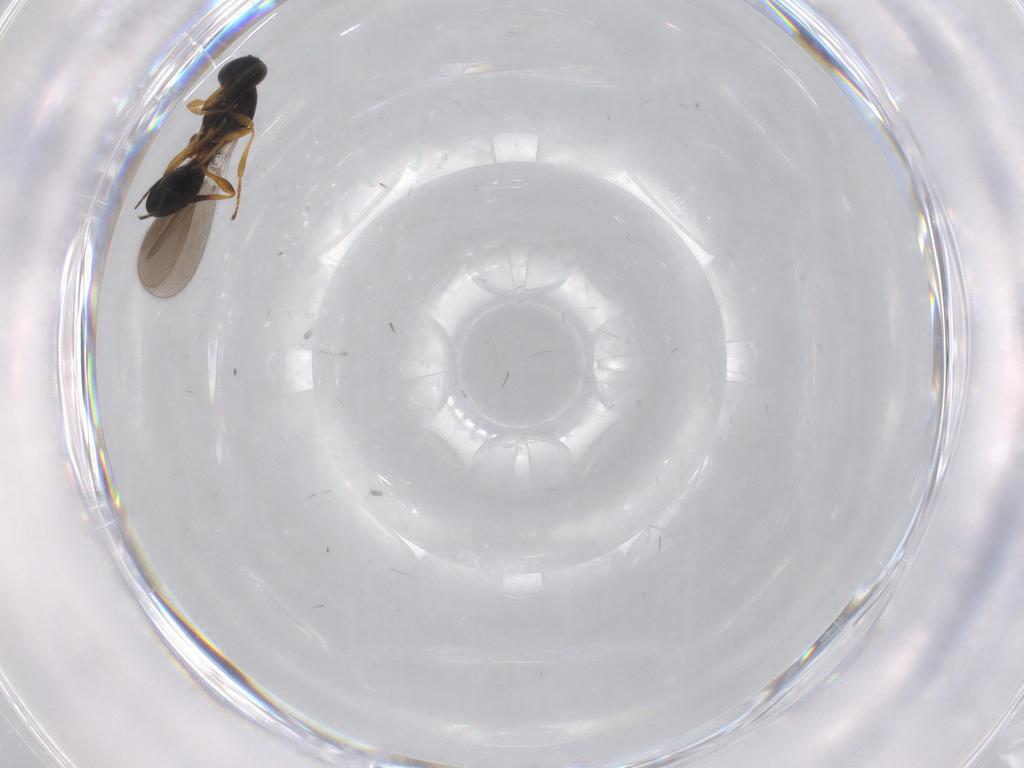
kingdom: Animalia
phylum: Arthropoda
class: Insecta
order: Hymenoptera
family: Platygastridae
